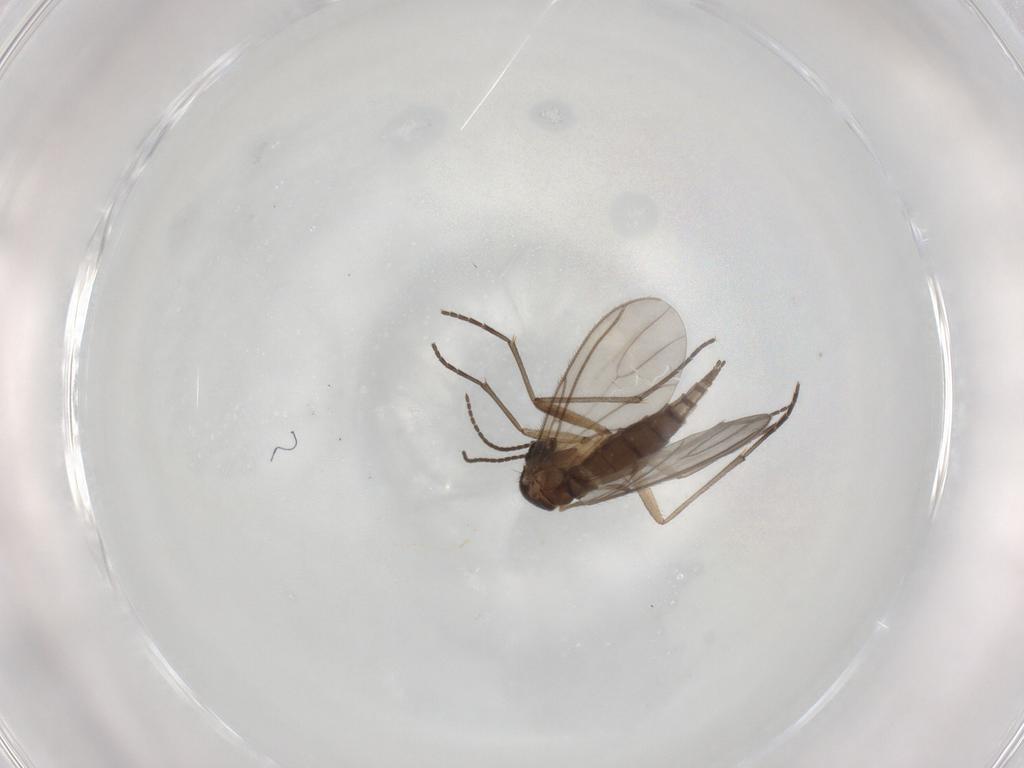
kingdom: Animalia
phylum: Arthropoda
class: Insecta
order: Diptera
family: Sciaridae
